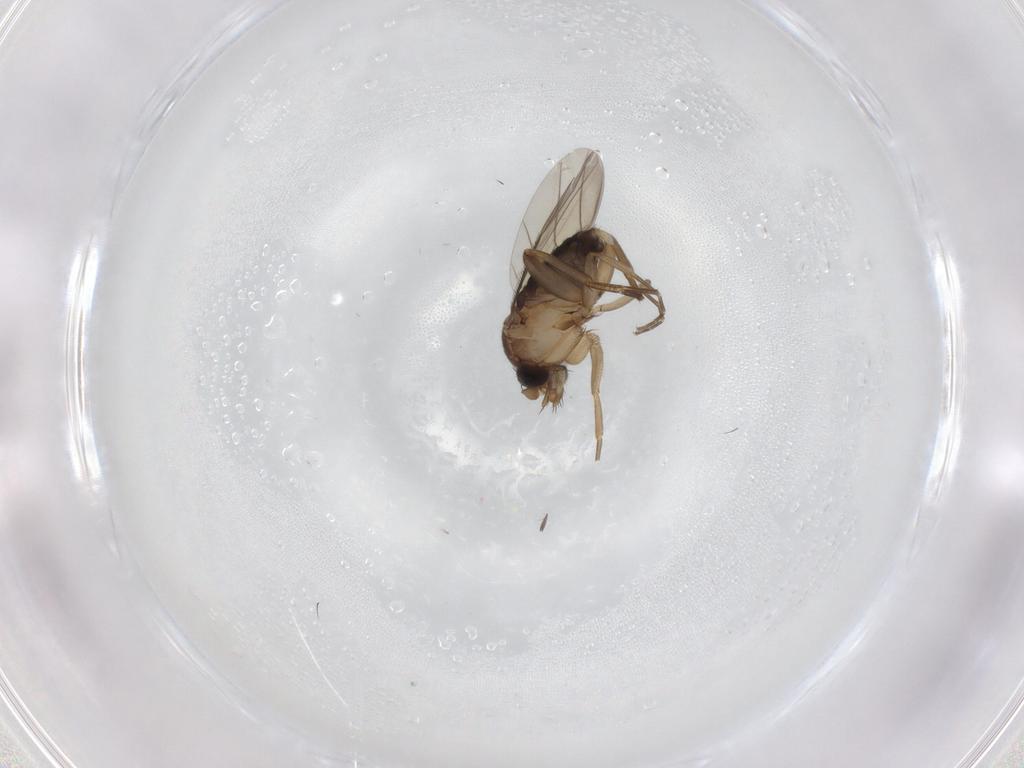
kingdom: Animalia
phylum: Arthropoda
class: Insecta
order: Diptera
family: Phoridae
